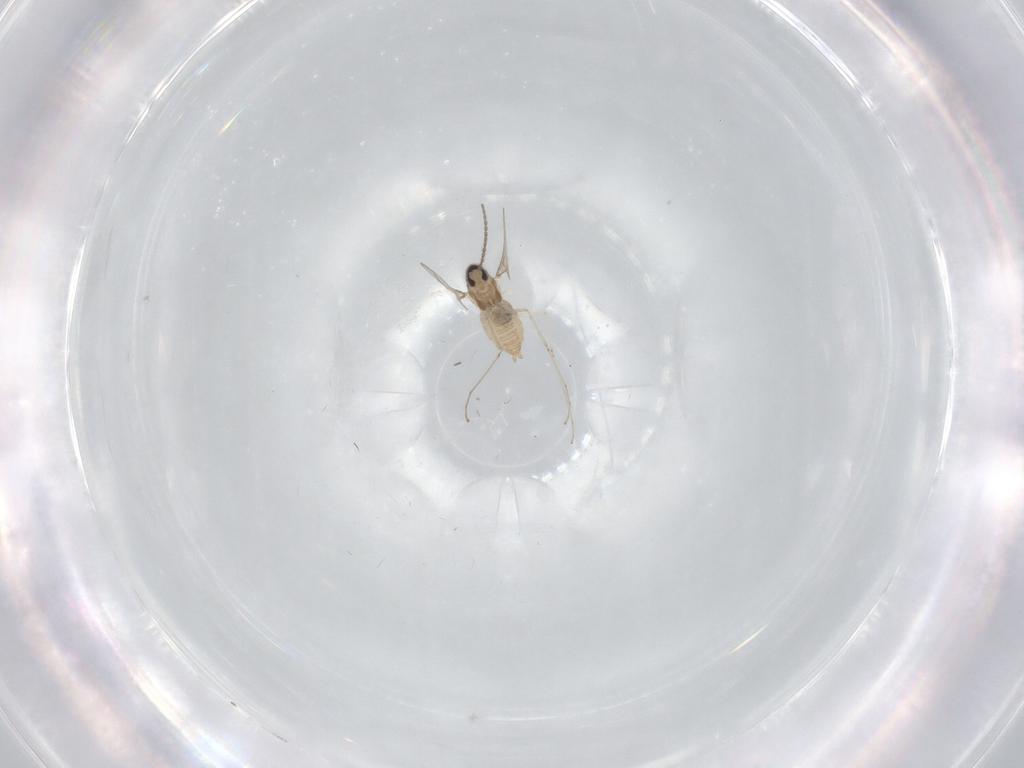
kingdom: Animalia
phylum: Arthropoda
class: Insecta
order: Diptera
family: Cecidomyiidae
